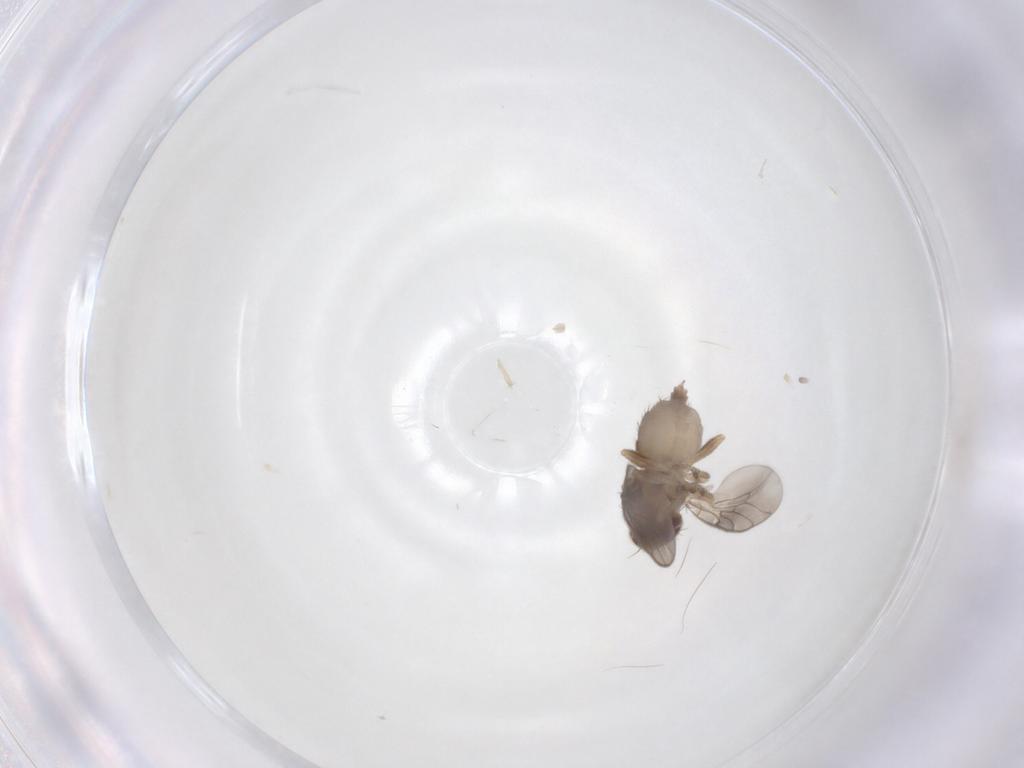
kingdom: Animalia
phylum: Arthropoda
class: Insecta
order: Diptera
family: Chloropidae
